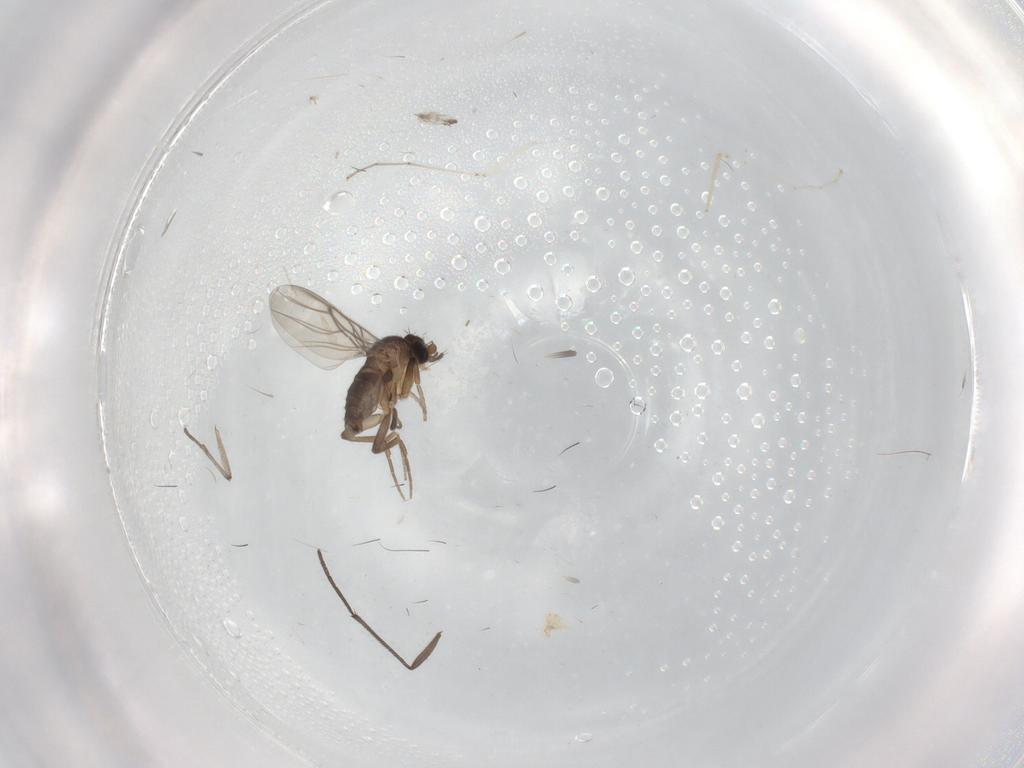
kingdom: Animalia
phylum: Arthropoda
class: Insecta
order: Diptera
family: Cecidomyiidae
